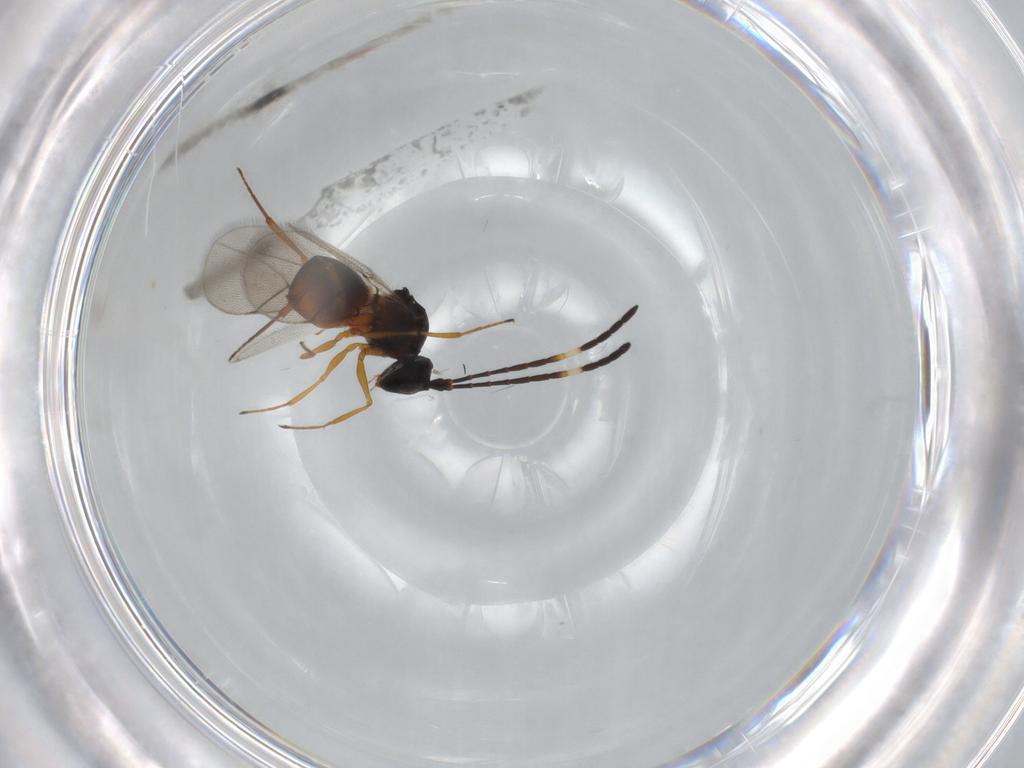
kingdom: Animalia
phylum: Arthropoda
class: Insecta
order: Hymenoptera
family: Figitidae
